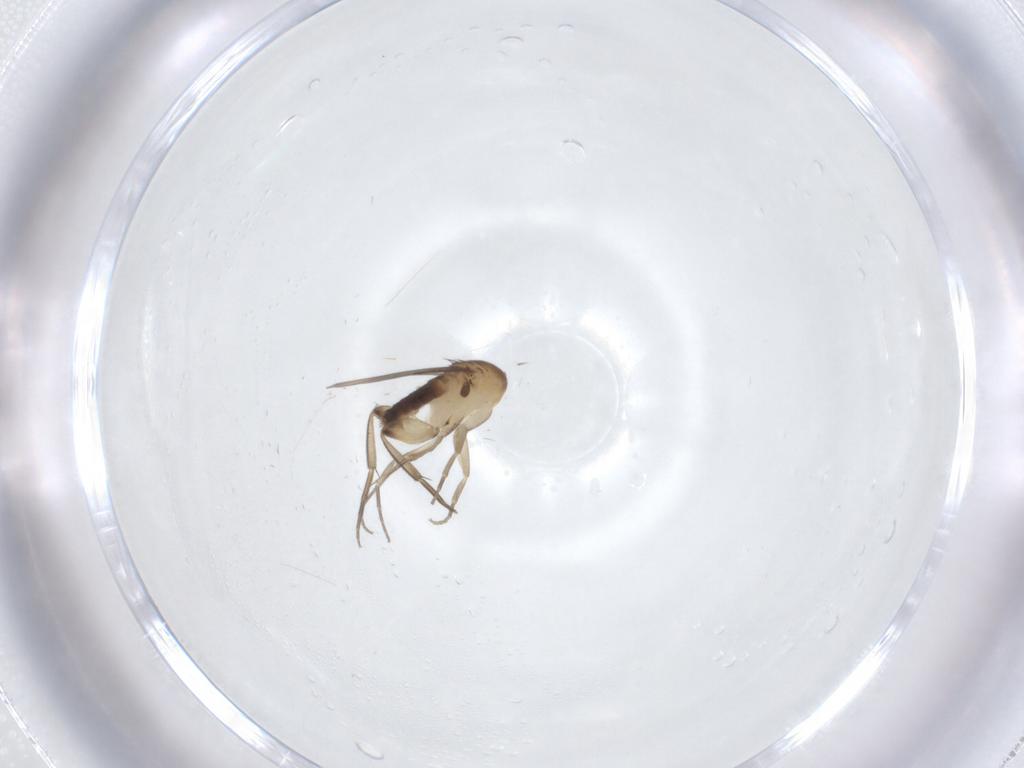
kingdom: Animalia
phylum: Arthropoda
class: Insecta
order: Diptera
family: Phoridae
